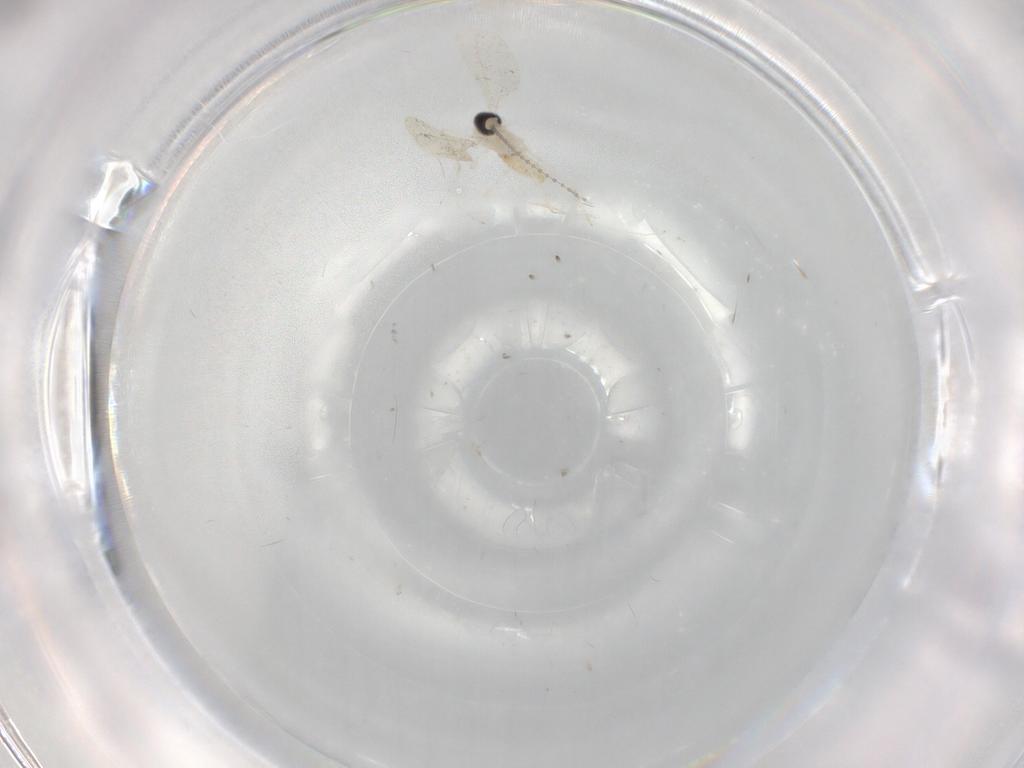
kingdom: Animalia
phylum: Arthropoda
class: Insecta
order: Diptera
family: Cecidomyiidae
